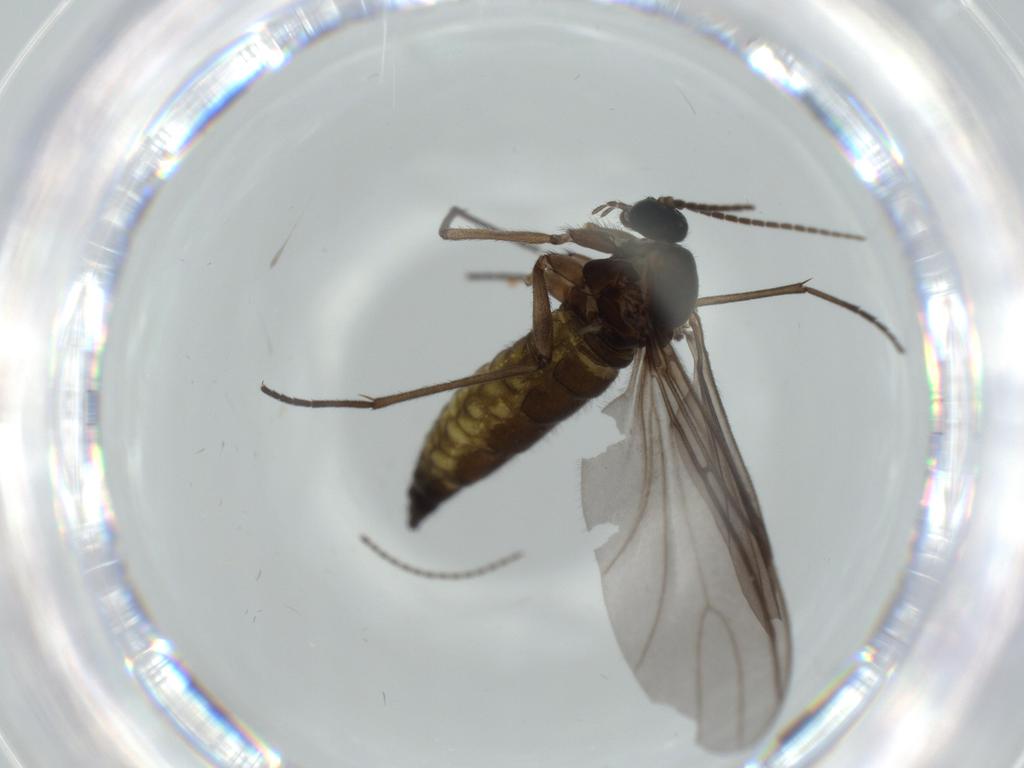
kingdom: Animalia
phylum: Arthropoda
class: Insecta
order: Diptera
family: Sciaridae
